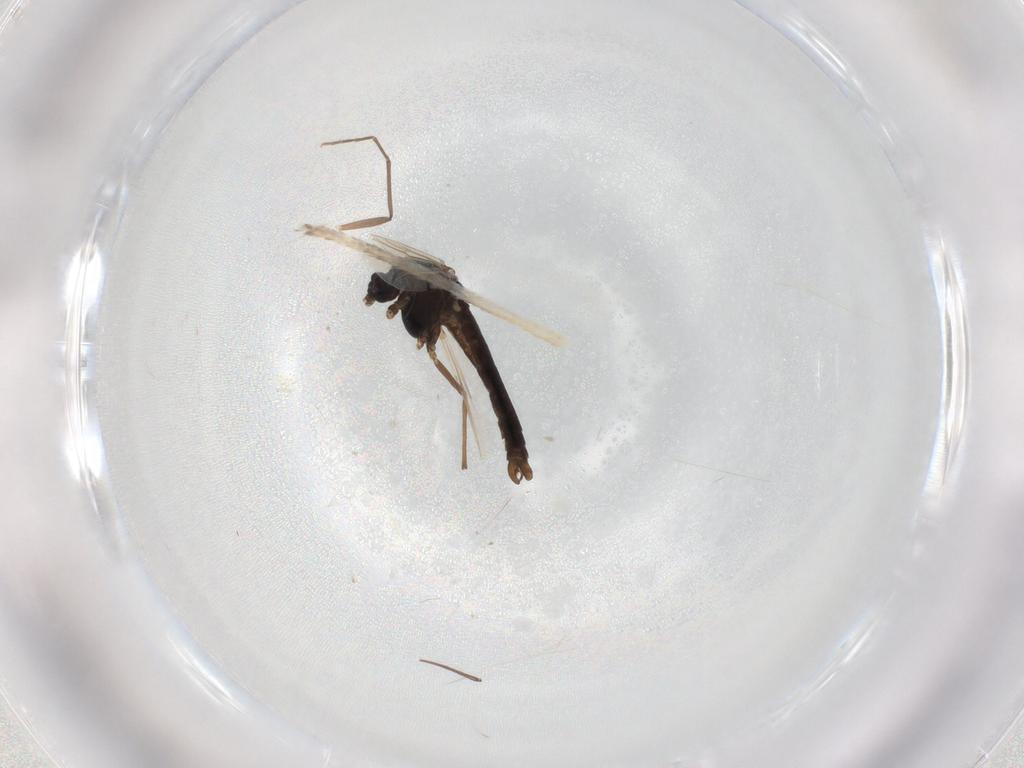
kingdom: Animalia
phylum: Arthropoda
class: Insecta
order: Diptera
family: Chironomidae
